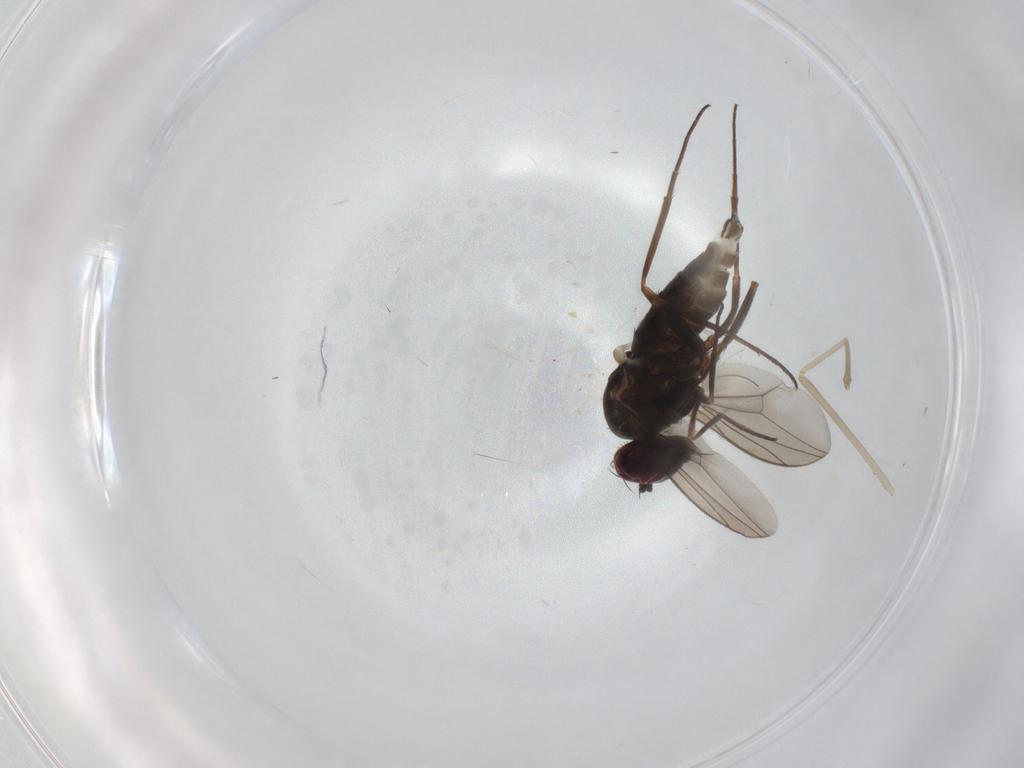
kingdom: Animalia
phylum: Arthropoda
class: Insecta
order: Diptera
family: Dolichopodidae
